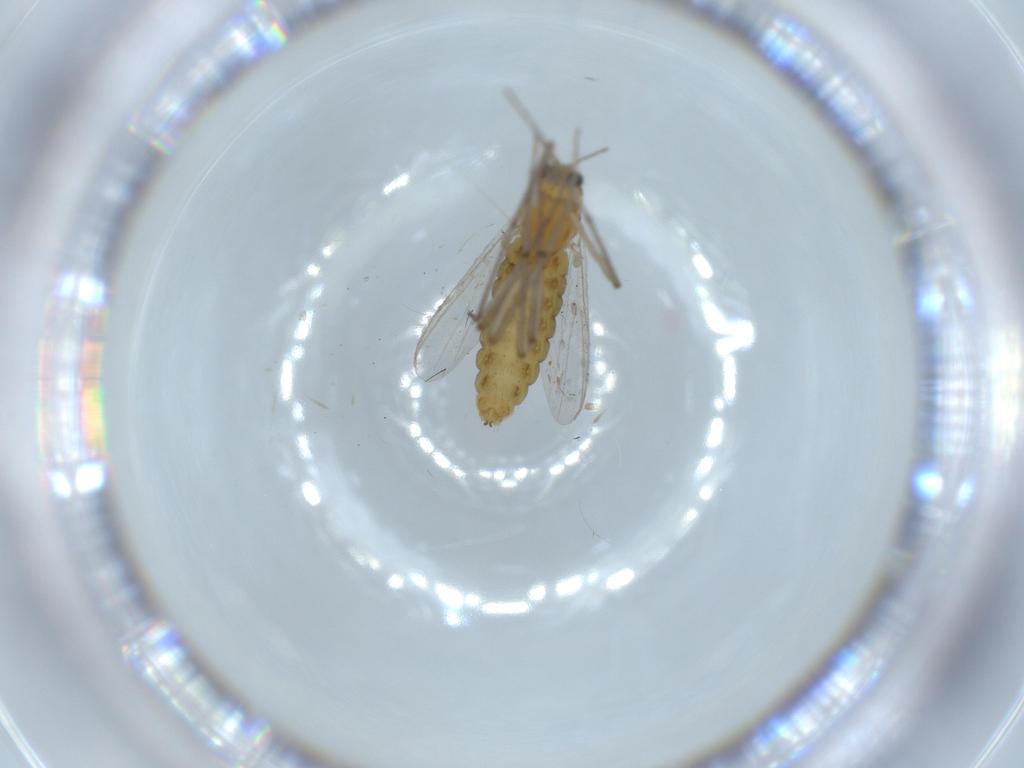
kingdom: Animalia
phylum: Arthropoda
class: Insecta
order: Diptera
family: Chironomidae
